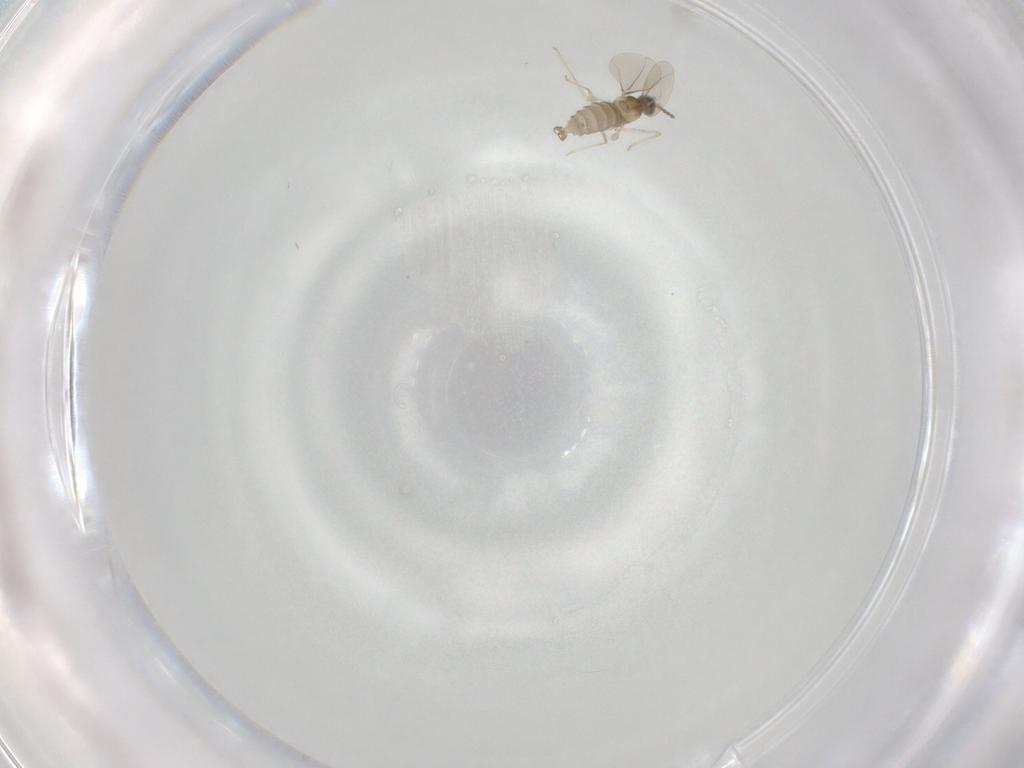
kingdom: Animalia
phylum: Arthropoda
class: Insecta
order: Diptera
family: Cecidomyiidae
